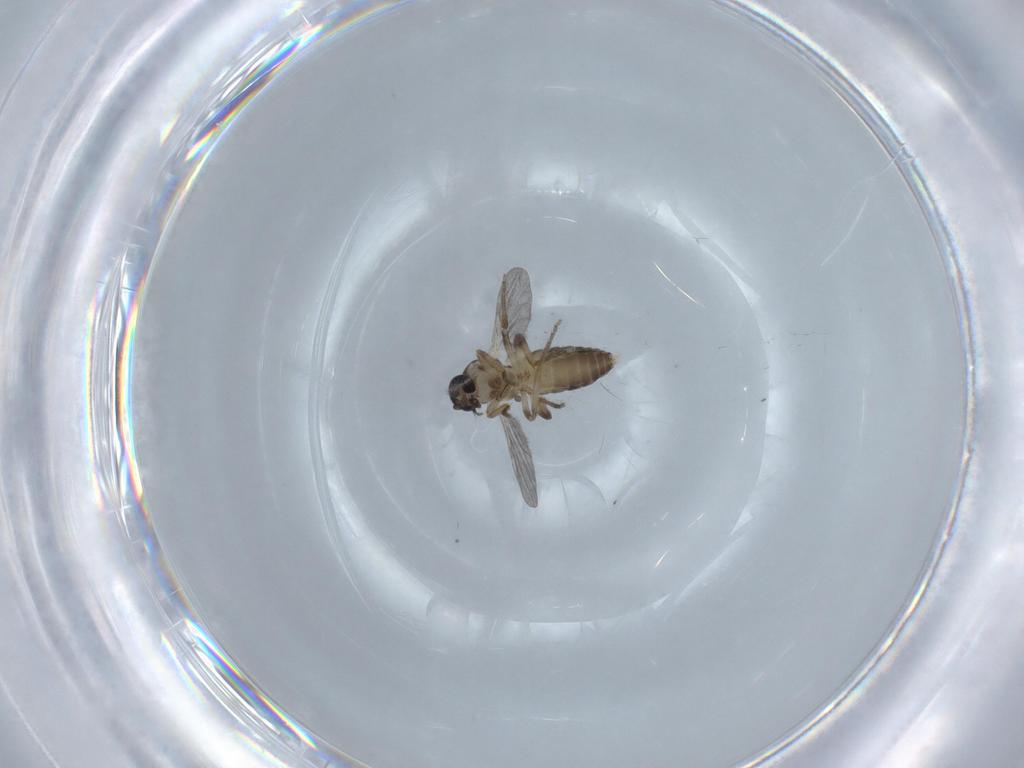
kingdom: Animalia
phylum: Arthropoda
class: Insecta
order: Diptera
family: Ceratopogonidae
